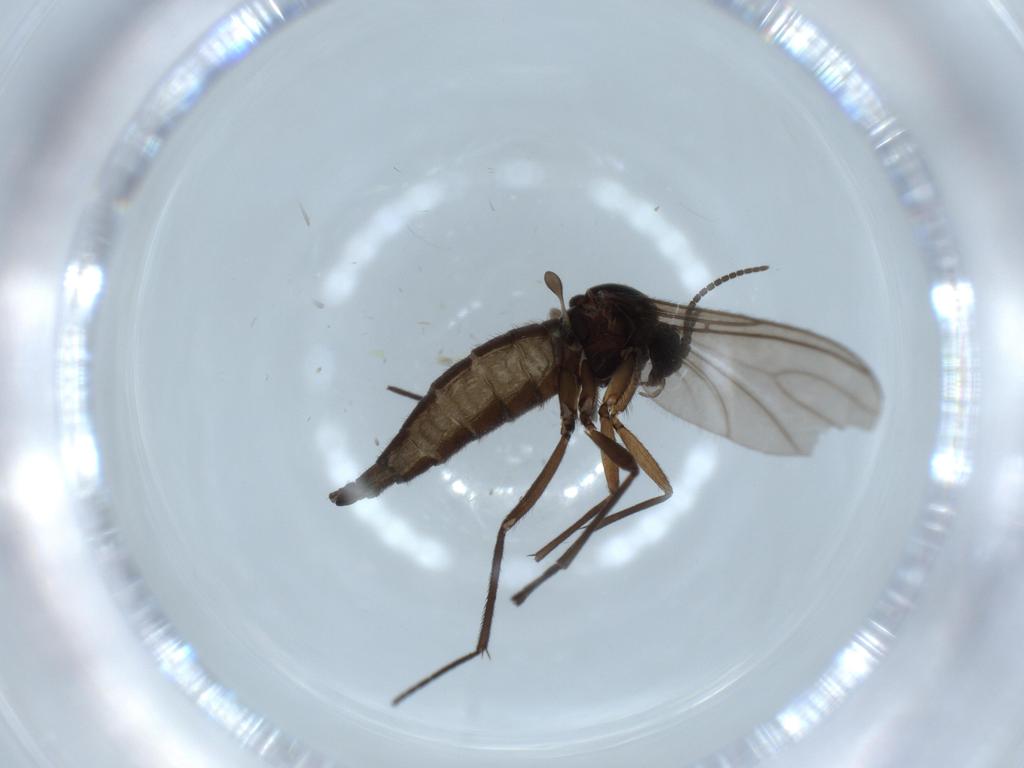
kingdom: Animalia
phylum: Arthropoda
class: Insecta
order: Diptera
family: Sciaridae
